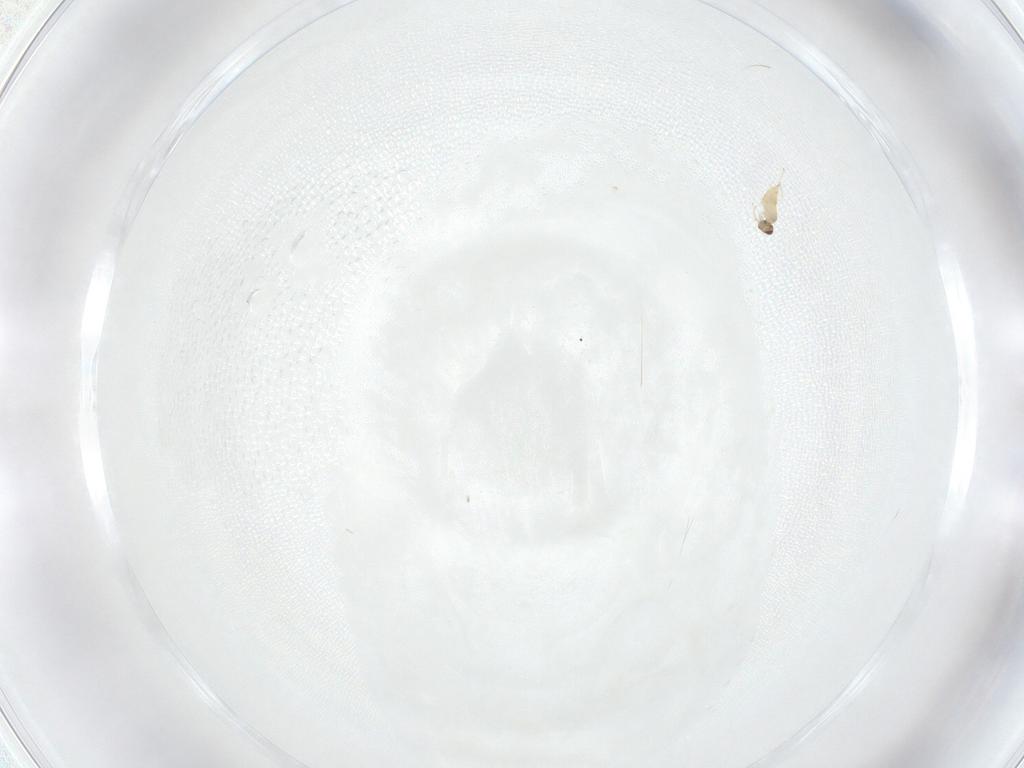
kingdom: Animalia
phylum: Arthropoda
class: Insecta
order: Hymenoptera
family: Mymaridae
